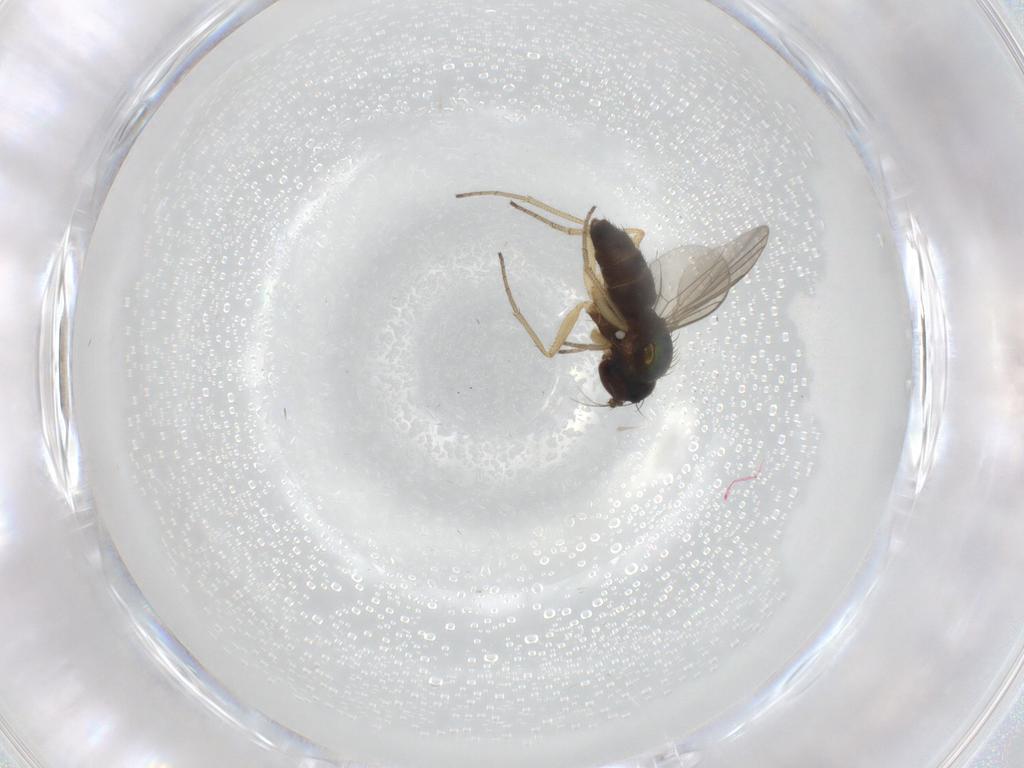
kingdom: Animalia
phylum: Arthropoda
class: Insecta
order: Diptera
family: Dolichopodidae
